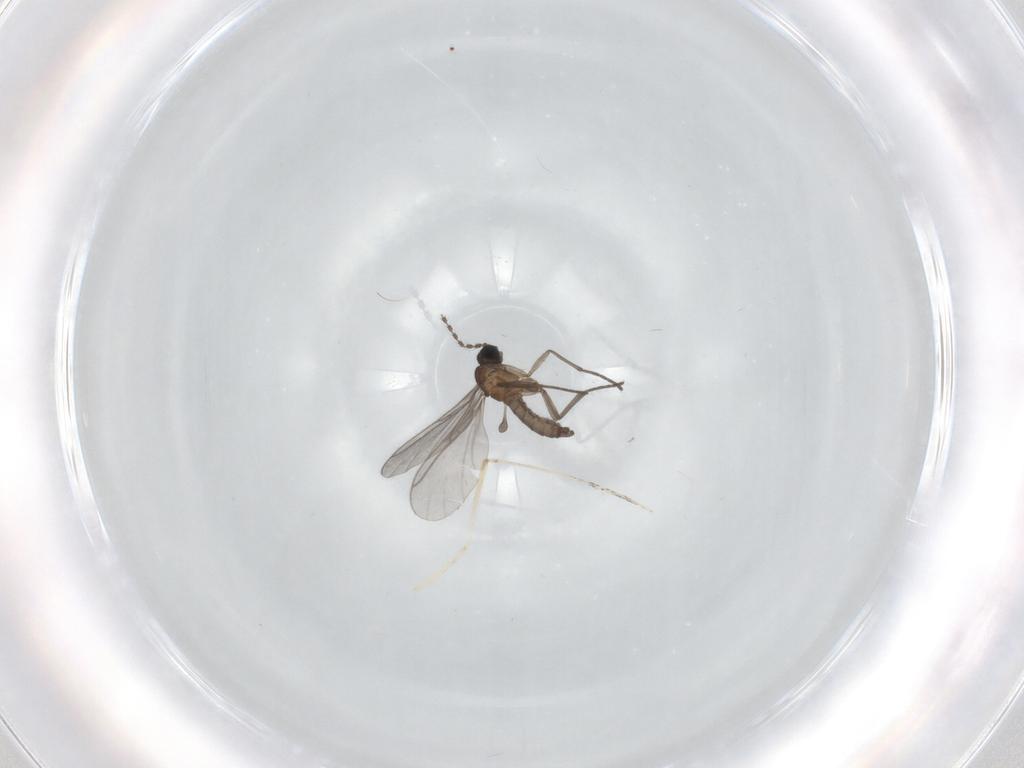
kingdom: Animalia
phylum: Arthropoda
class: Insecta
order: Diptera
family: Cecidomyiidae
